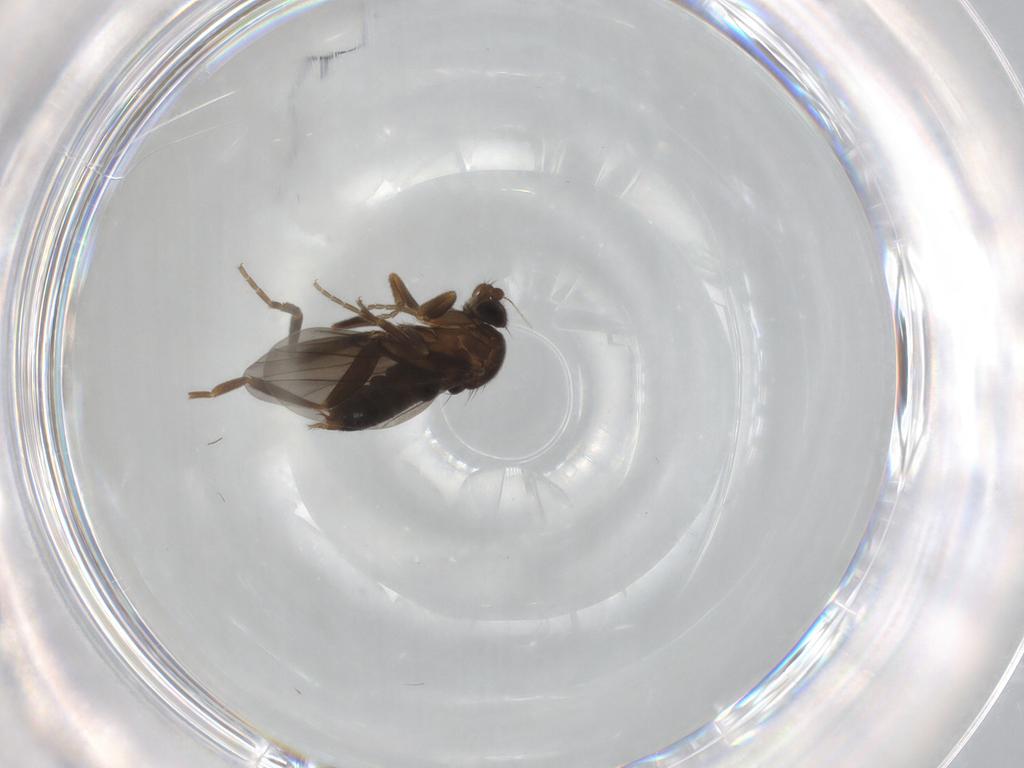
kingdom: Animalia
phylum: Arthropoda
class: Insecta
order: Diptera
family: Phoridae
